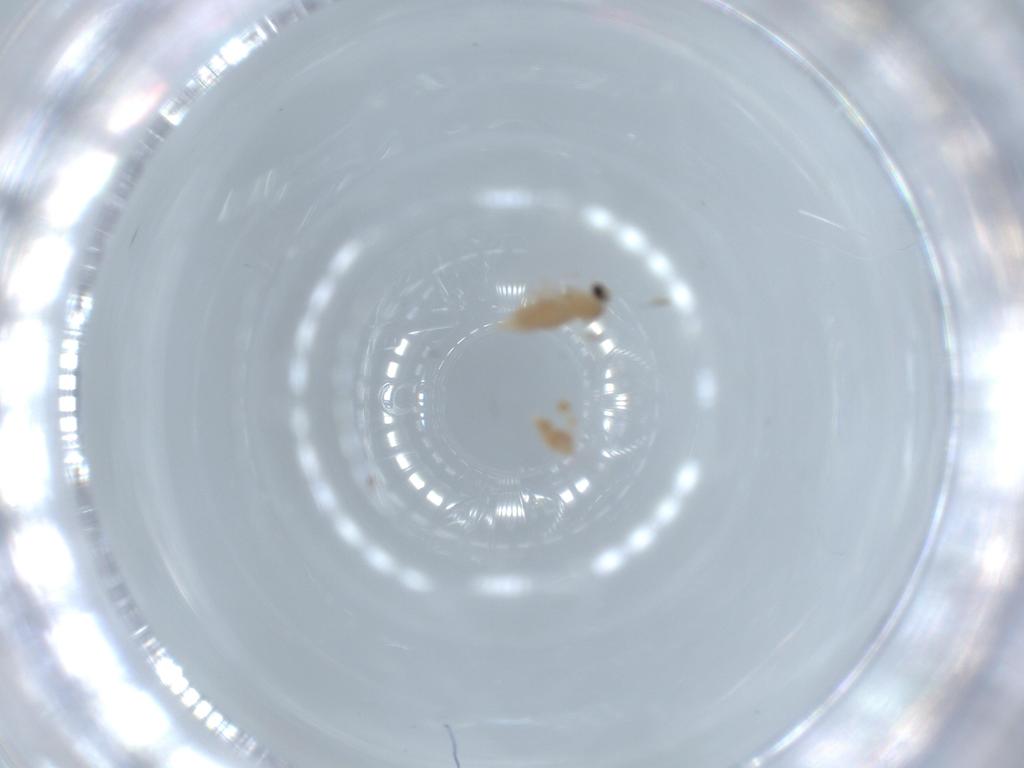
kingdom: Animalia
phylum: Arthropoda
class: Insecta
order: Diptera
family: Cecidomyiidae
